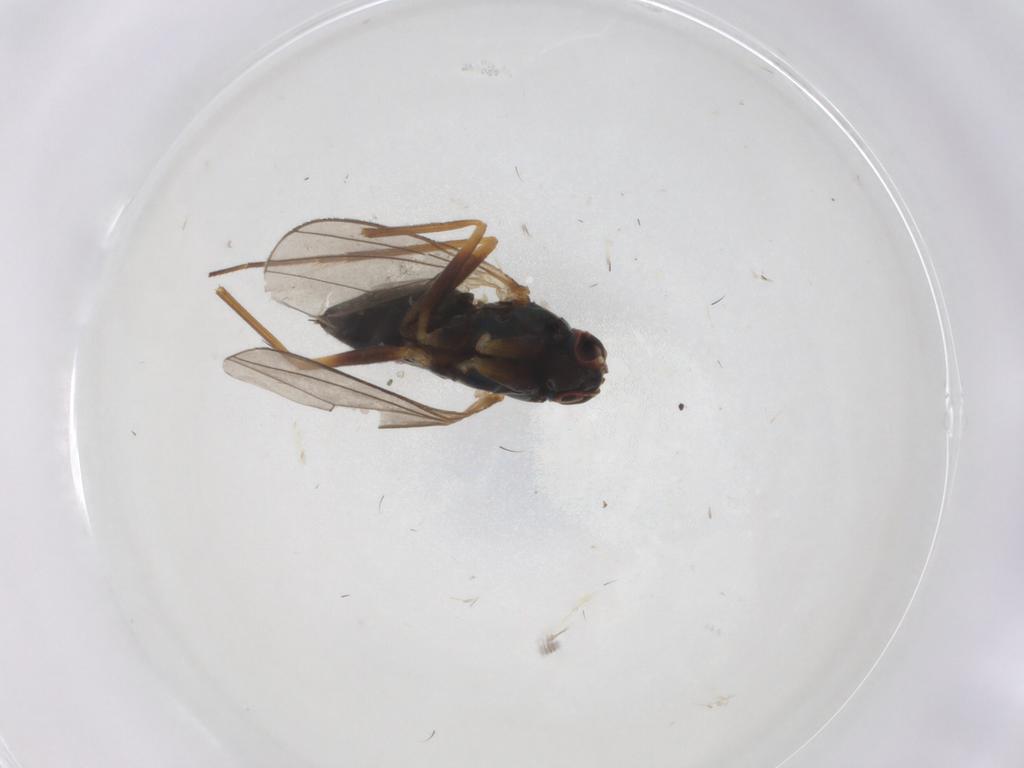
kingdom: Animalia
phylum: Arthropoda
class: Insecta
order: Diptera
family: Dolichopodidae
